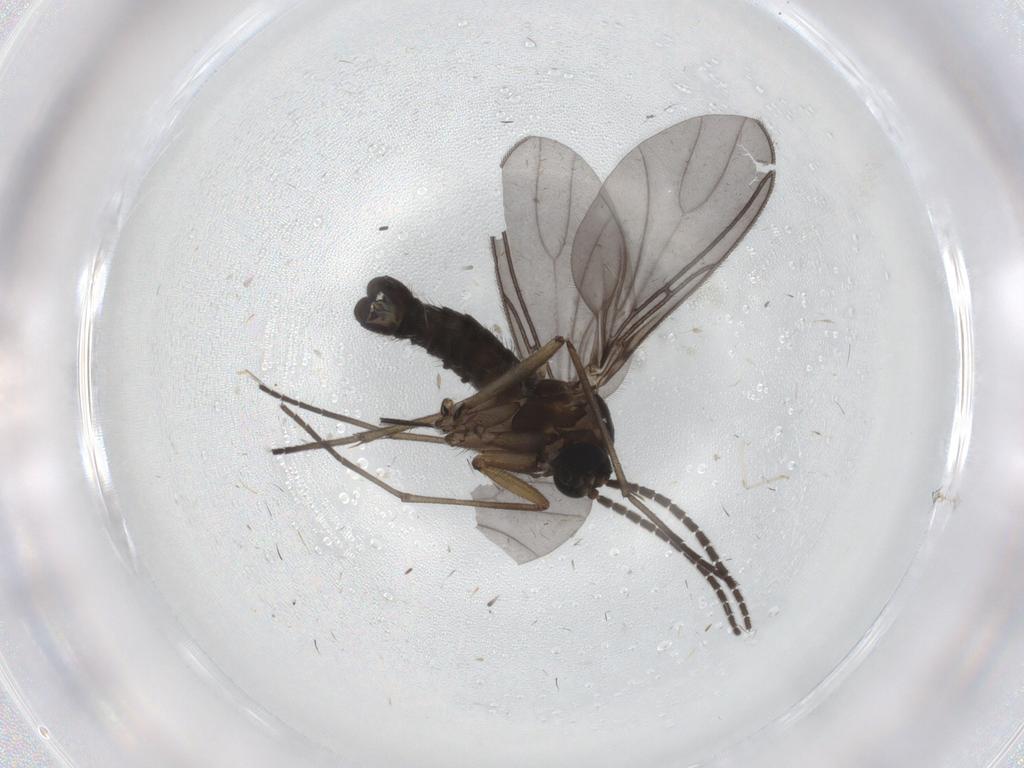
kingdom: Animalia
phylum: Arthropoda
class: Insecta
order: Diptera
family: Sciaridae
